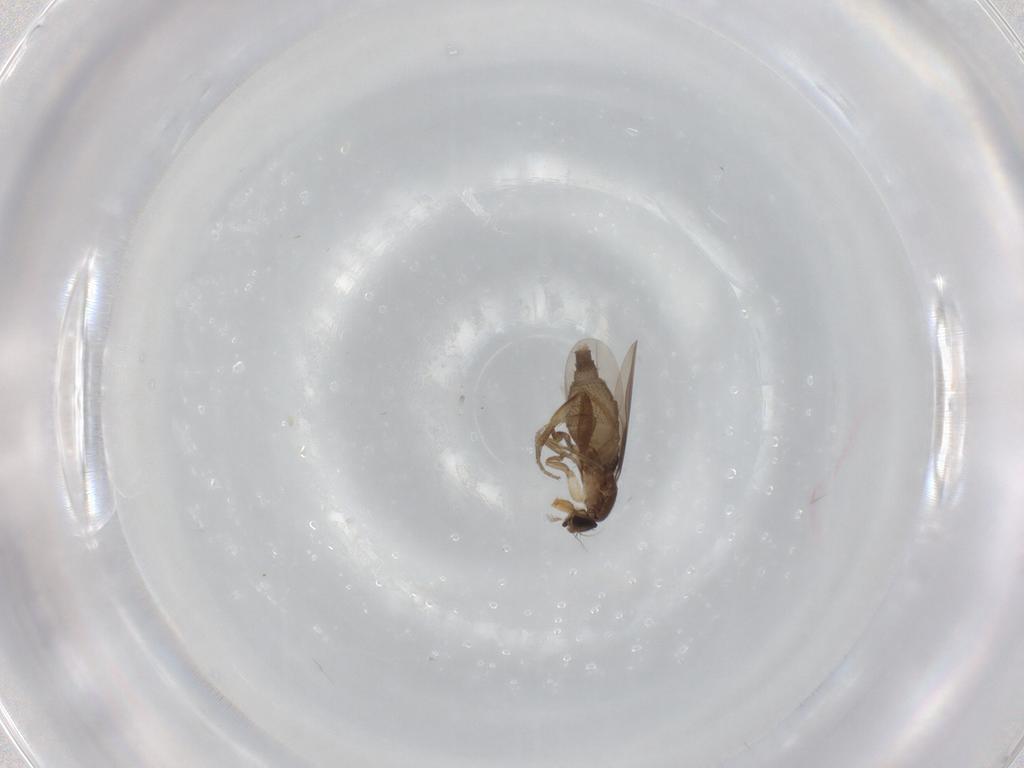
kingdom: Animalia
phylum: Arthropoda
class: Insecta
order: Diptera
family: Phoridae
